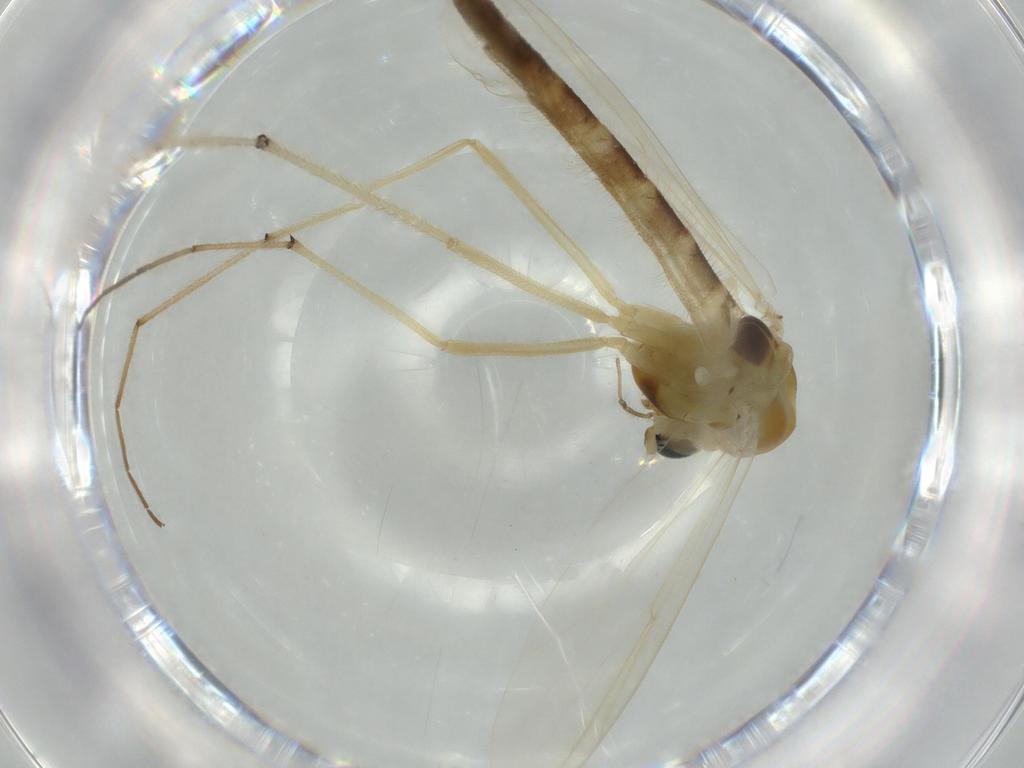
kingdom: Animalia
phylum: Arthropoda
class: Insecta
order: Diptera
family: Chironomidae
